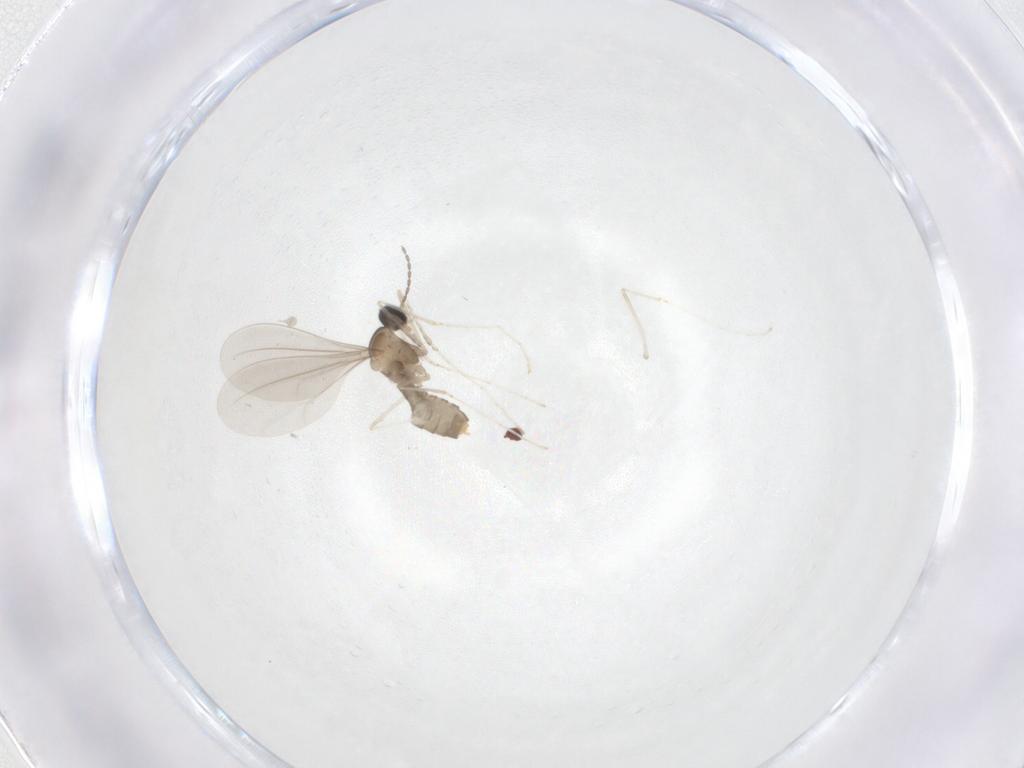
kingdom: Animalia
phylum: Arthropoda
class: Insecta
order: Diptera
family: Cecidomyiidae
